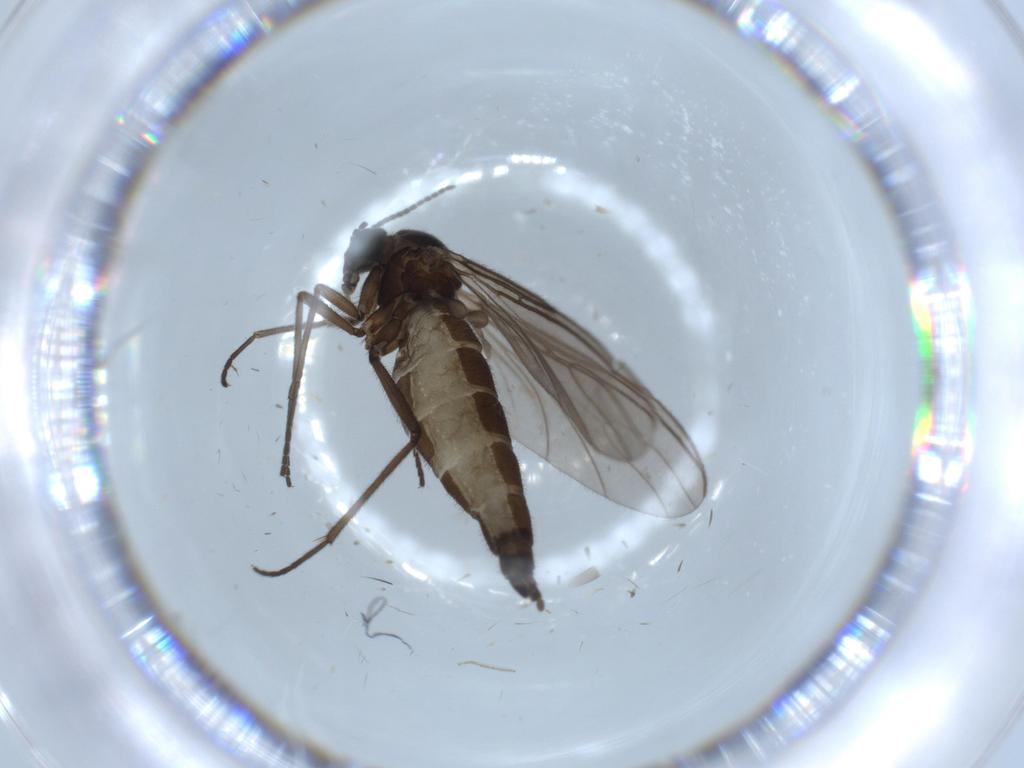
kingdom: Animalia
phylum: Arthropoda
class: Insecta
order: Diptera
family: Sciaridae
